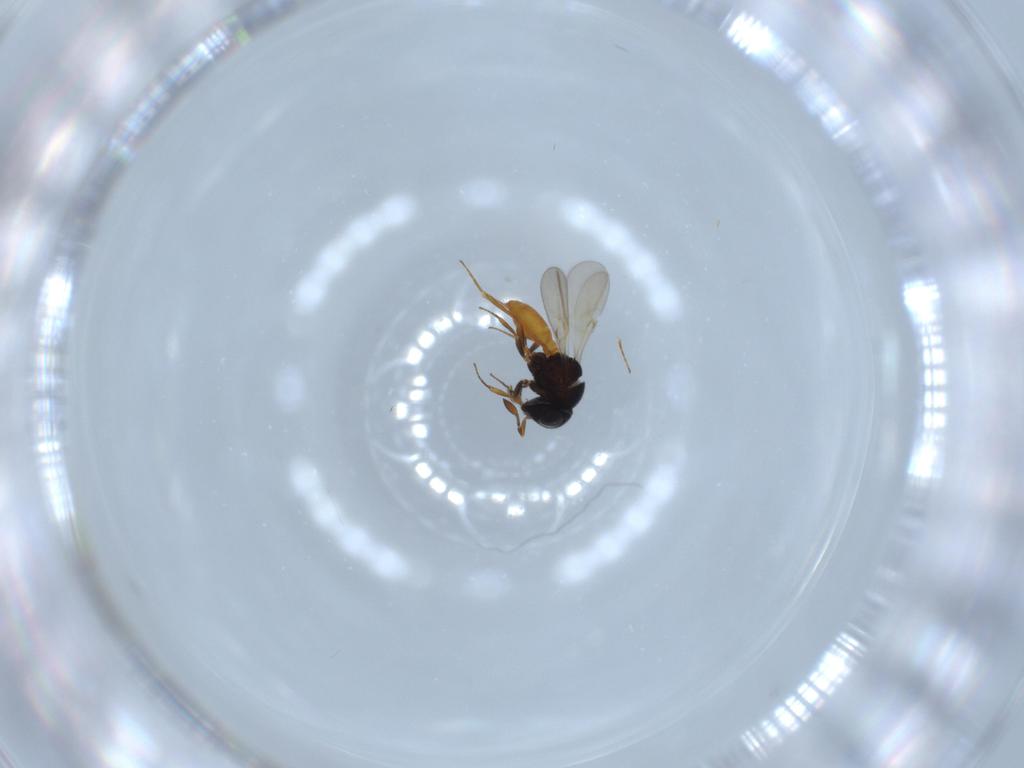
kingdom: Animalia
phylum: Arthropoda
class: Insecta
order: Hymenoptera
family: Scelionidae
